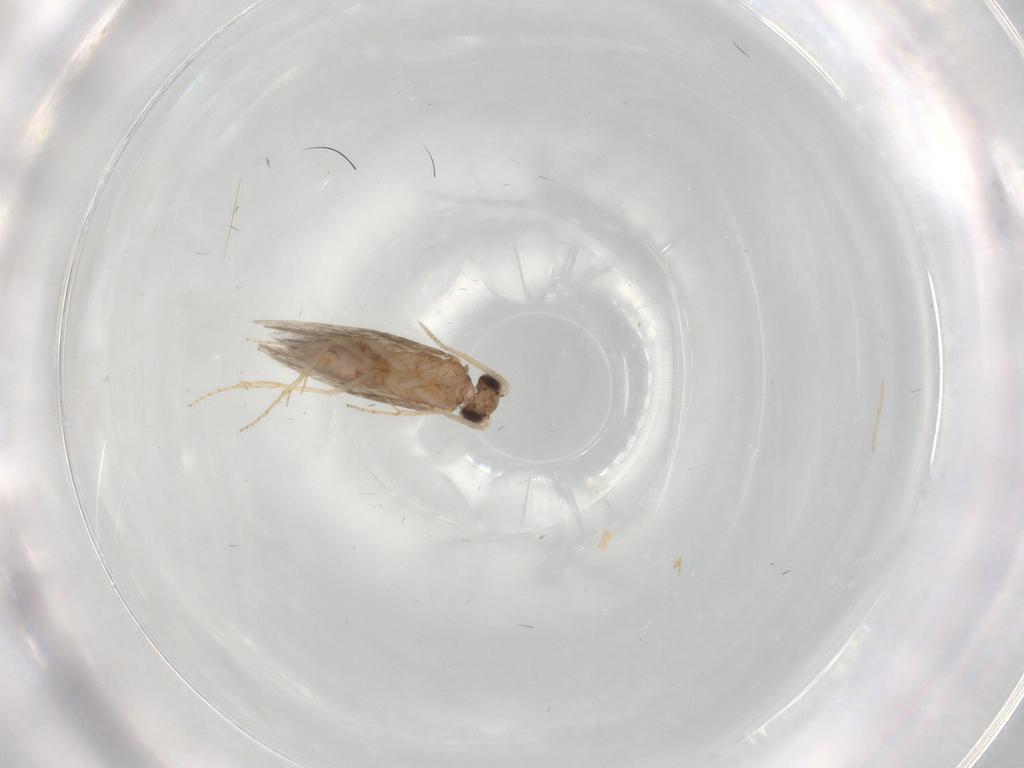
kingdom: Animalia
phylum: Arthropoda
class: Insecta
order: Trichoptera
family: Hydroptilidae
